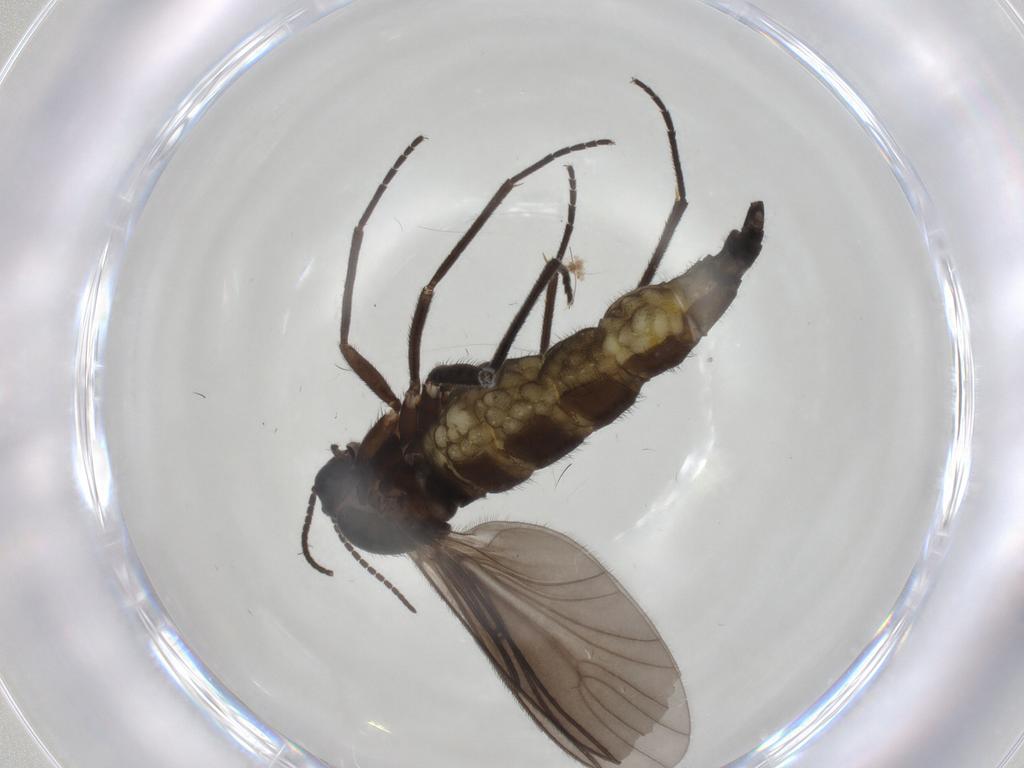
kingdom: Animalia
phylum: Arthropoda
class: Insecta
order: Diptera
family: Sciaridae
